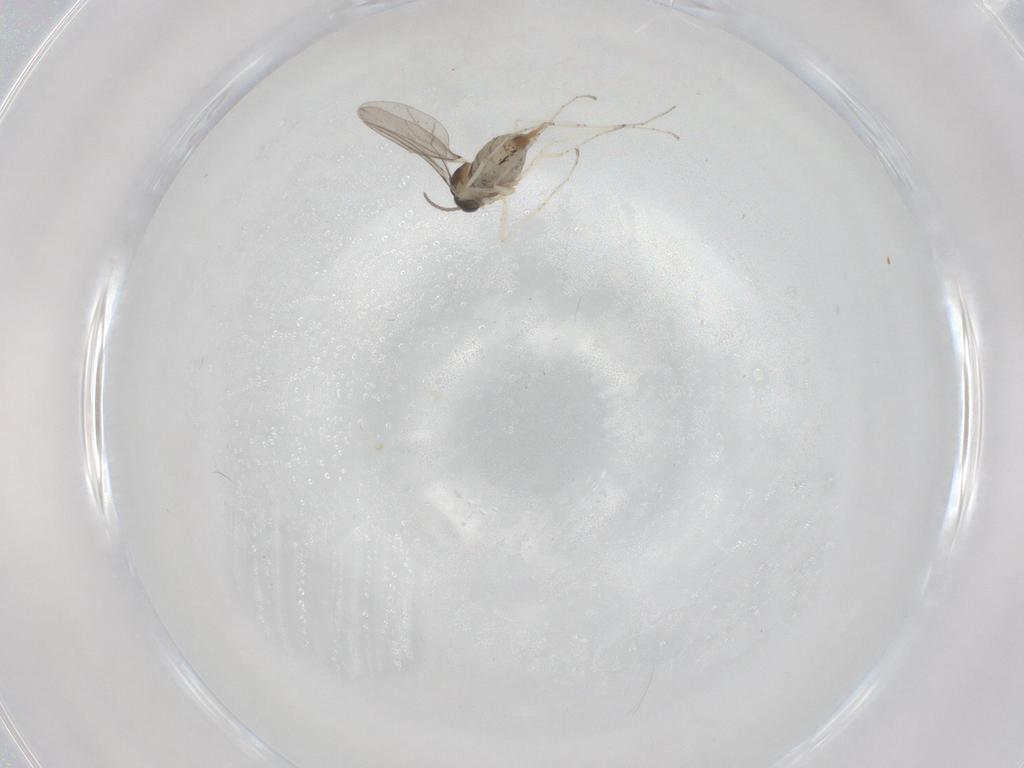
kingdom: Animalia
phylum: Arthropoda
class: Insecta
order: Diptera
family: Cecidomyiidae
